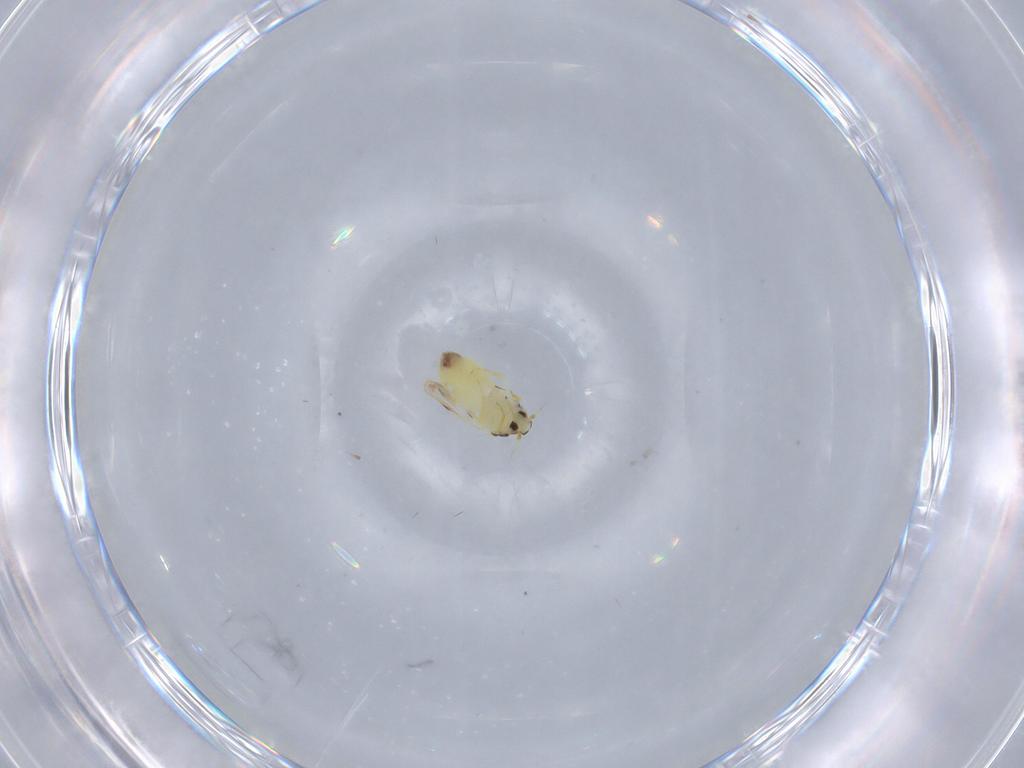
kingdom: Animalia
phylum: Arthropoda
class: Insecta
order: Hemiptera
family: Aleyrodidae
